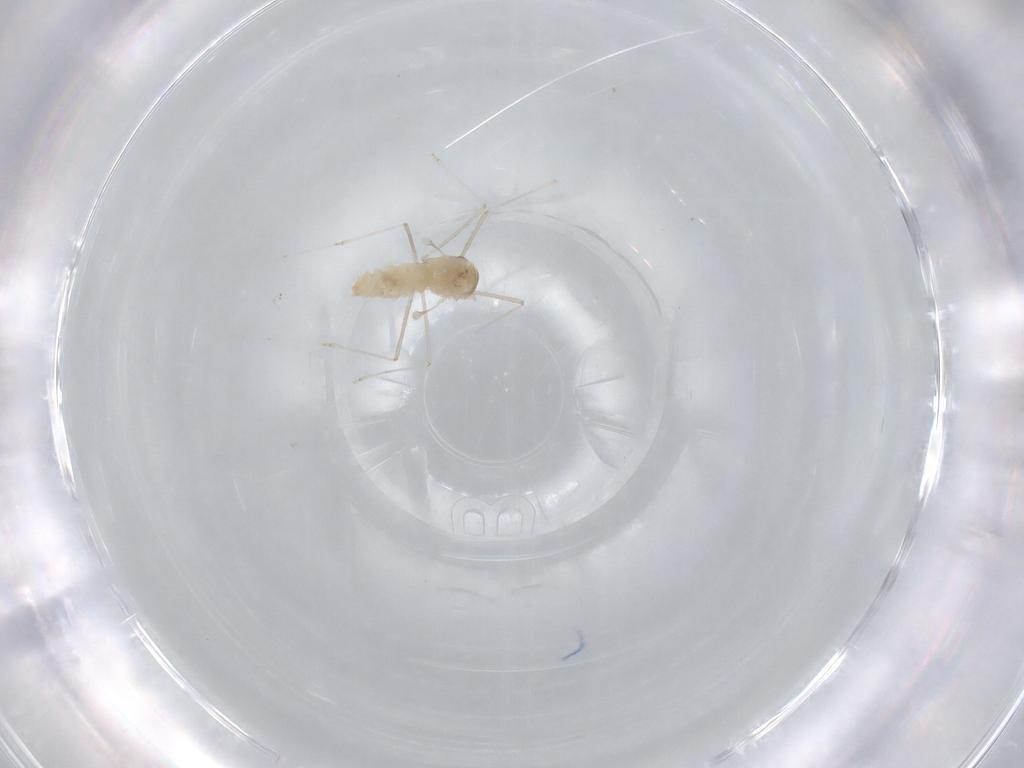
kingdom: Animalia
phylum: Arthropoda
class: Insecta
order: Diptera
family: Cecidomyiidae
